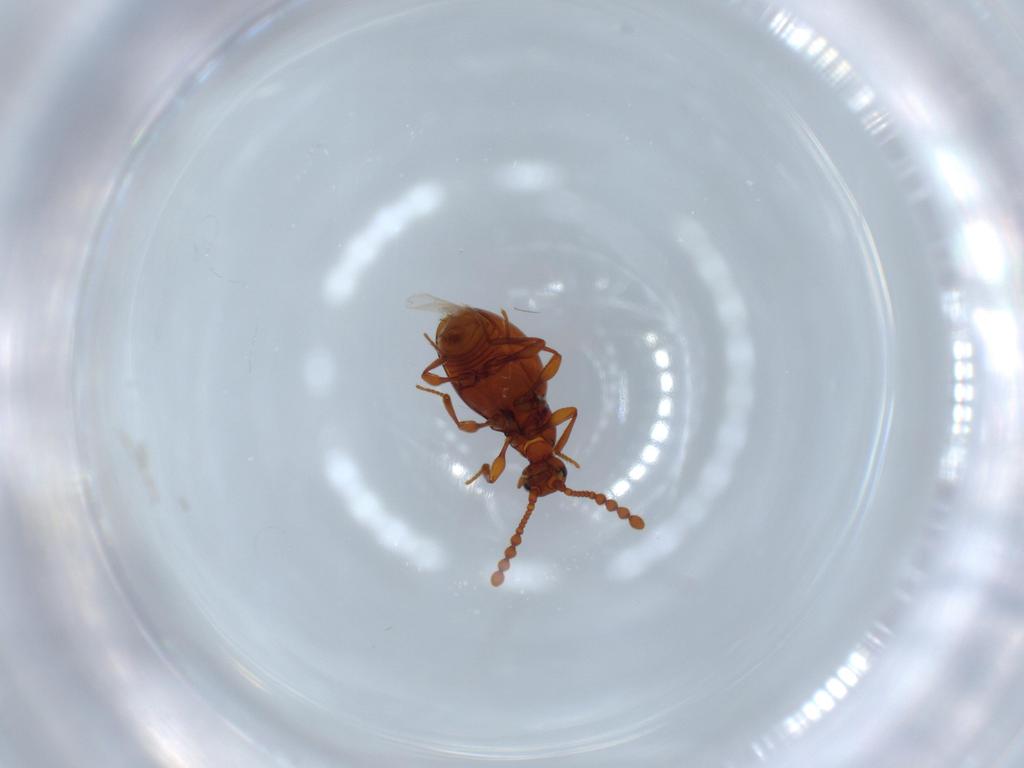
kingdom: Animalia
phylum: Arthropoda
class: Insecta
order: Coleoptera
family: Staphylinidae
